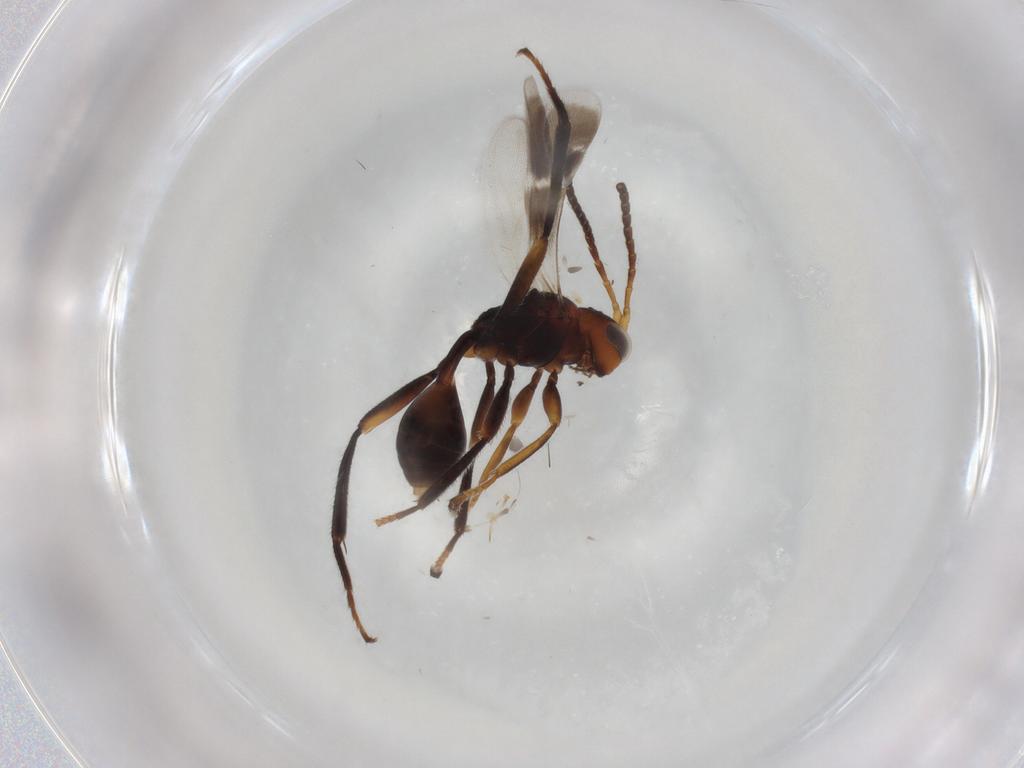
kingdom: Animalia
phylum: Arthropoda
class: Insecta
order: Hymenoptera
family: Braconidae
